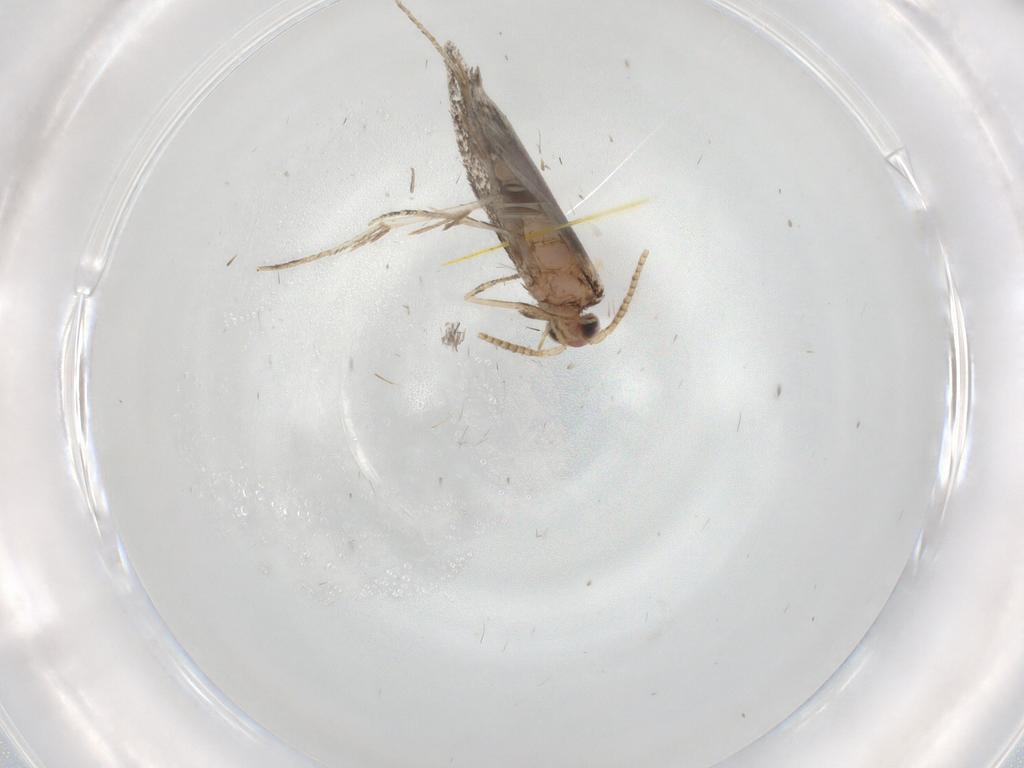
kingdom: Animalia
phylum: Arthropoda
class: Insecta
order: Lepidoptera
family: Tineidae
